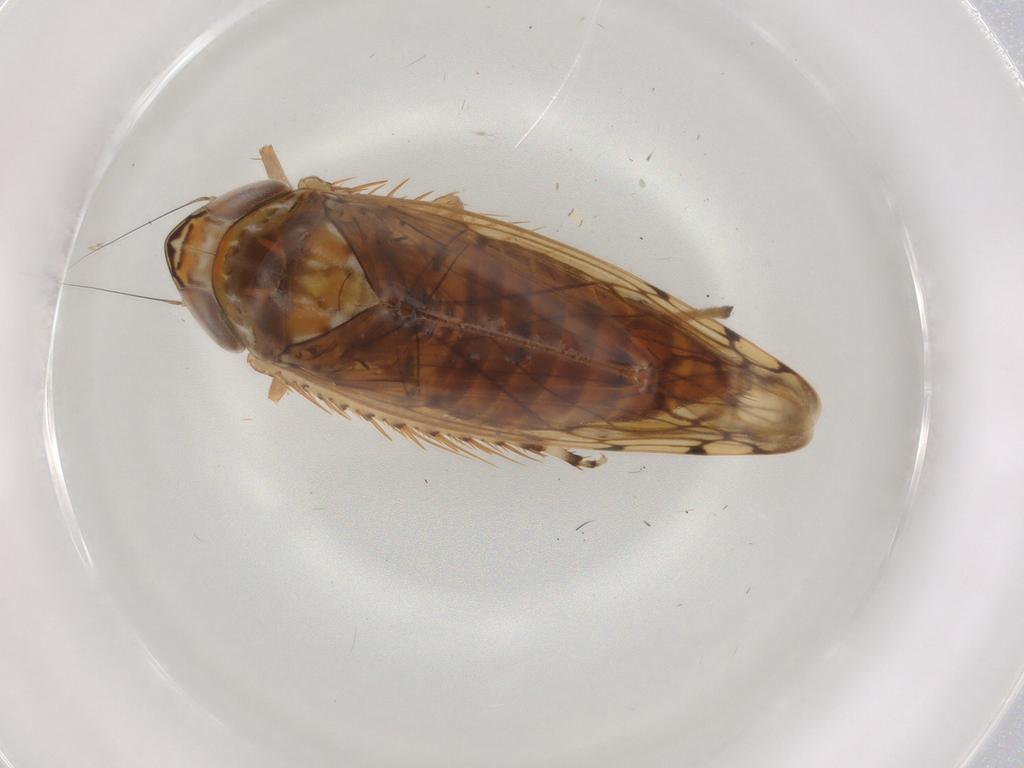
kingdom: Animalia
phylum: Arthropoda
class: Insecta
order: Hemiptera
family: Cicadellidae
